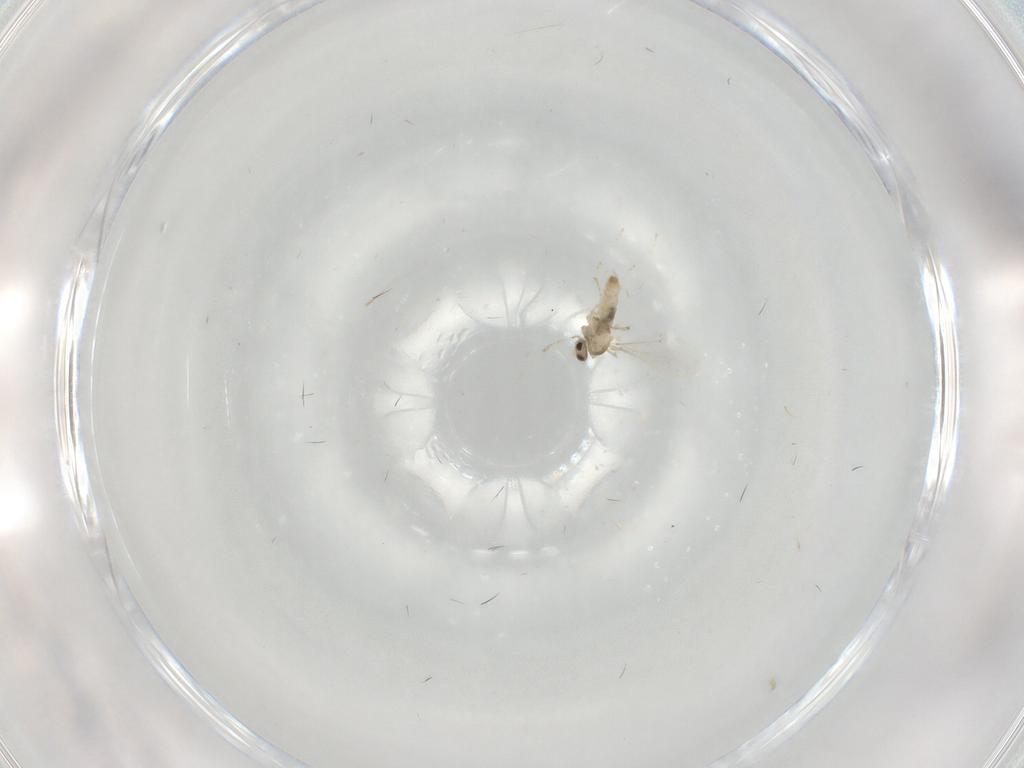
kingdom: Animalia
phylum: Arthropoda
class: Insecta
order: Diptera
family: Limoniidae
